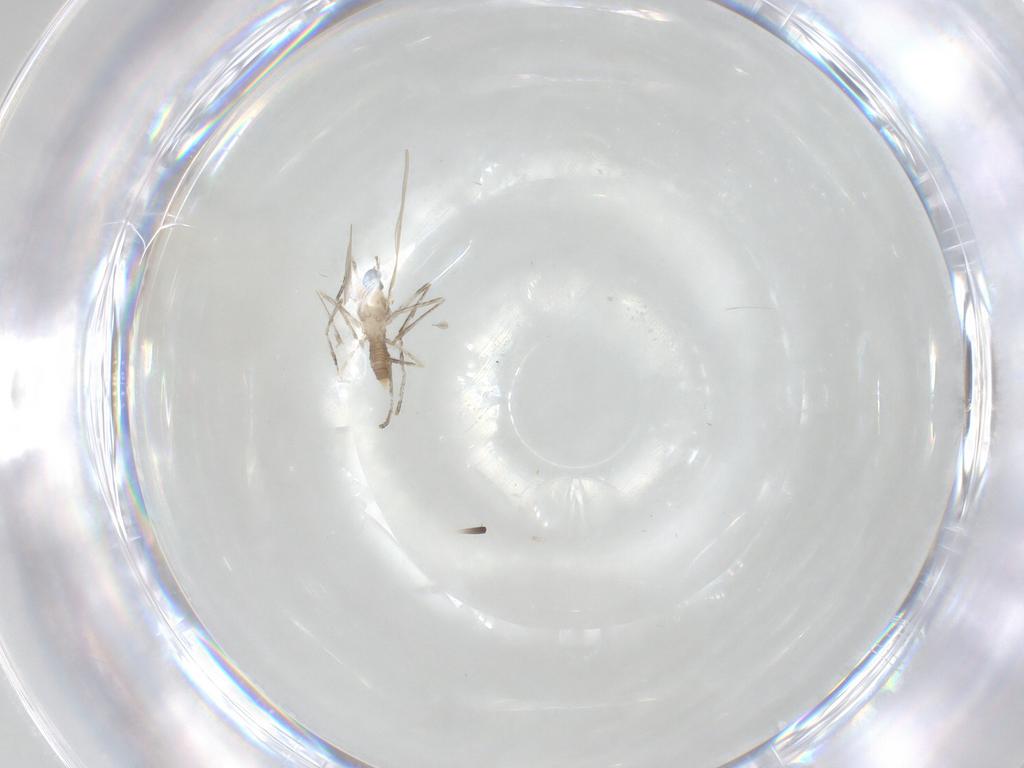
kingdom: Animalia
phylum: Arthropoda
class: Insecta
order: Diptera
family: Cecidomyiidae
